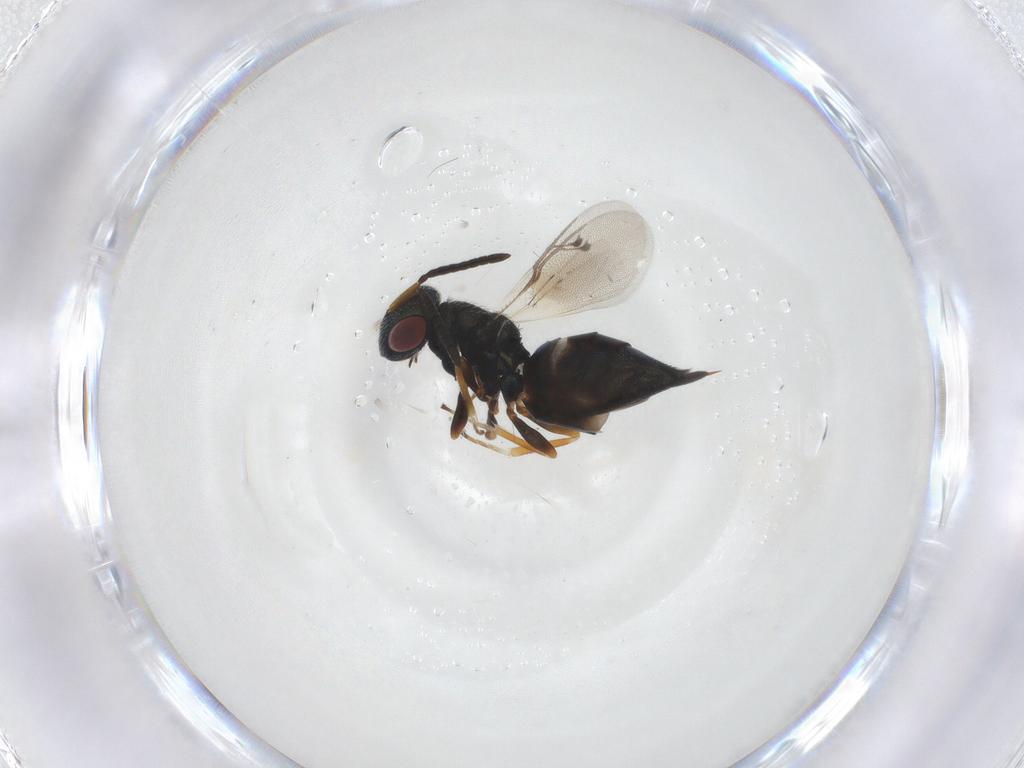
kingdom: Animalia
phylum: Arthropoda
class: Insecta
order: Hymenoptera
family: Pteromalidae
